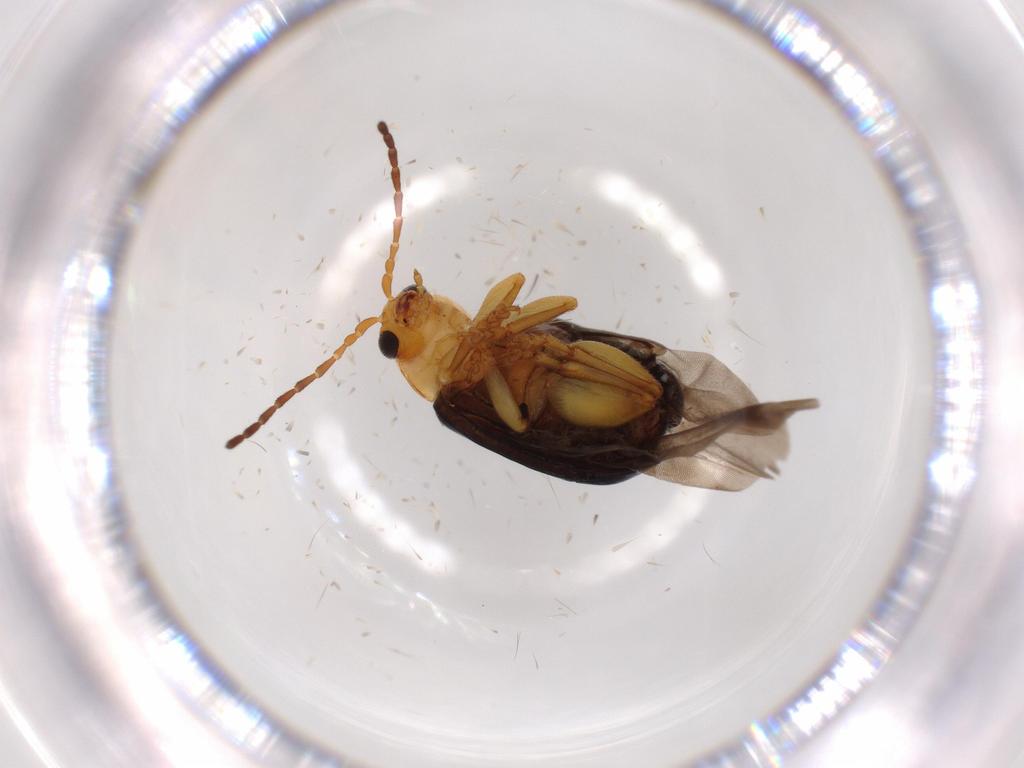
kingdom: Animalia
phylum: Arthropoda
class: Insecta
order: Coleoptera
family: Chrysomelidae
